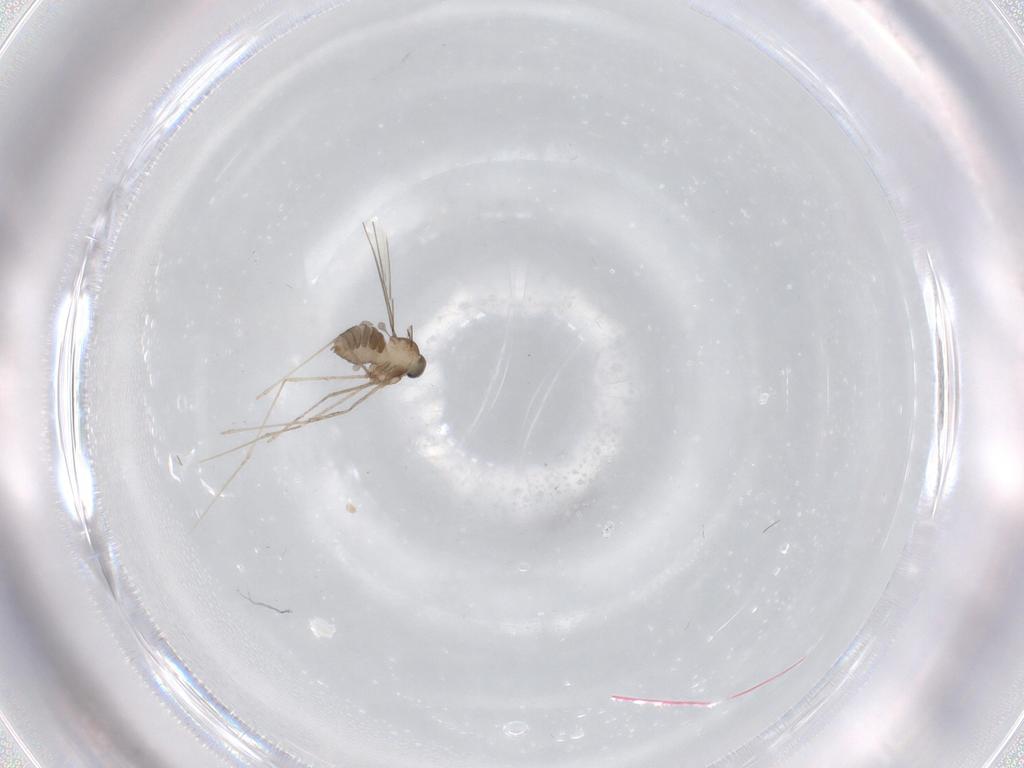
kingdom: Animalia
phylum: Arthropoda
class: Insecta
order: Diptera
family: Cecidomyiidae
